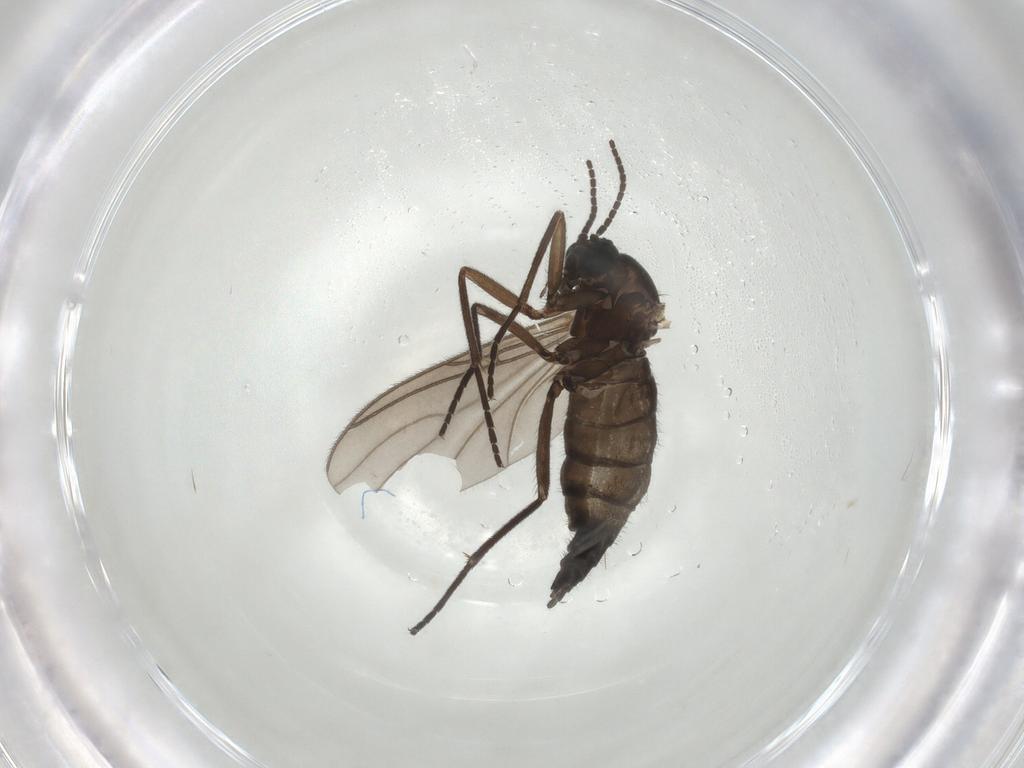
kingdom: Animalia
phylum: Arthropoda
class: Insecta
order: Diptera
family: Sciaridae
